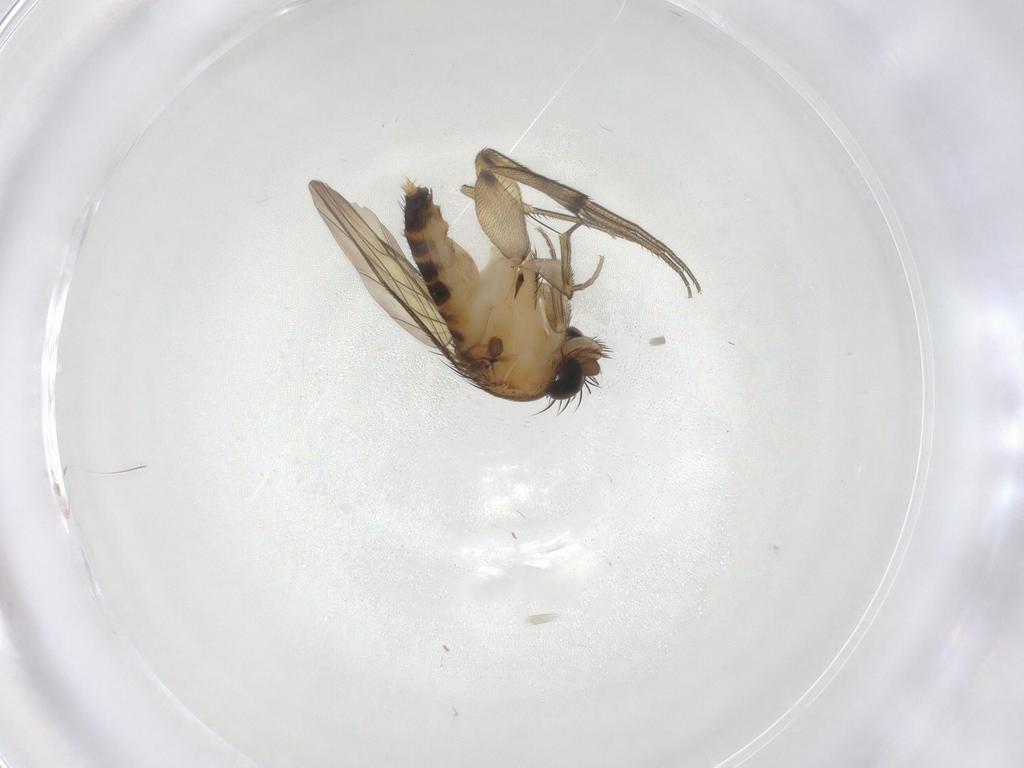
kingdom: Animalia
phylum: Arthropoda
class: Insecta
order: Diptera
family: Phoridae
